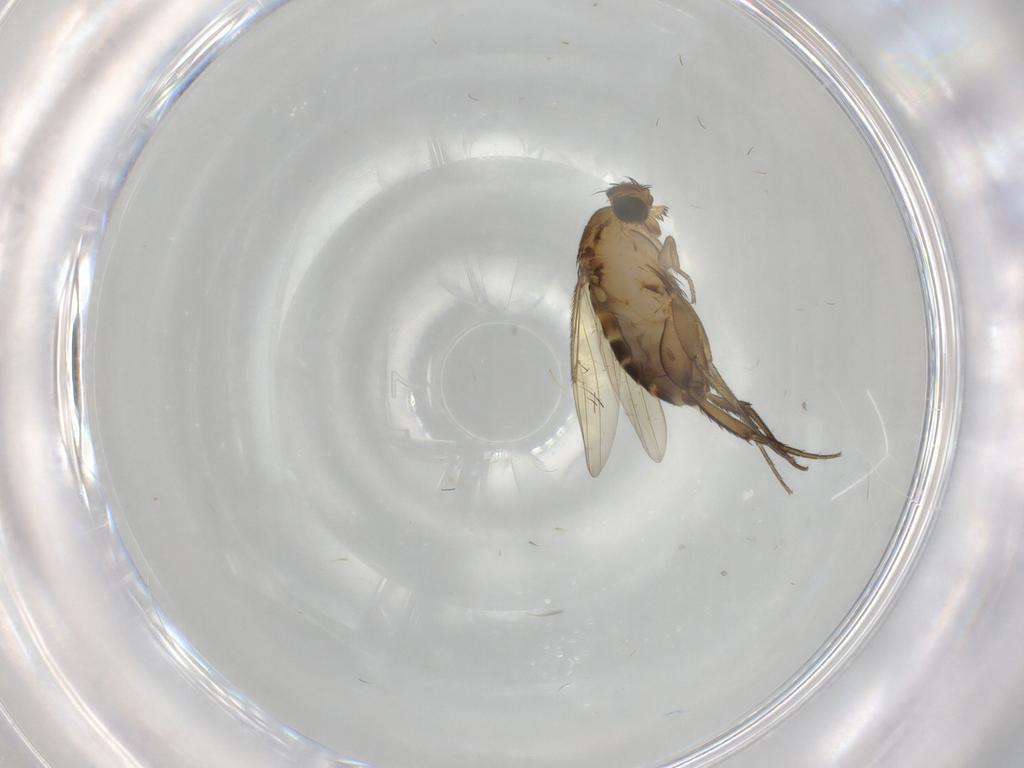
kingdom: Animalia
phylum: Arthropoda
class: Insecta
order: Diptera
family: Phoridae
